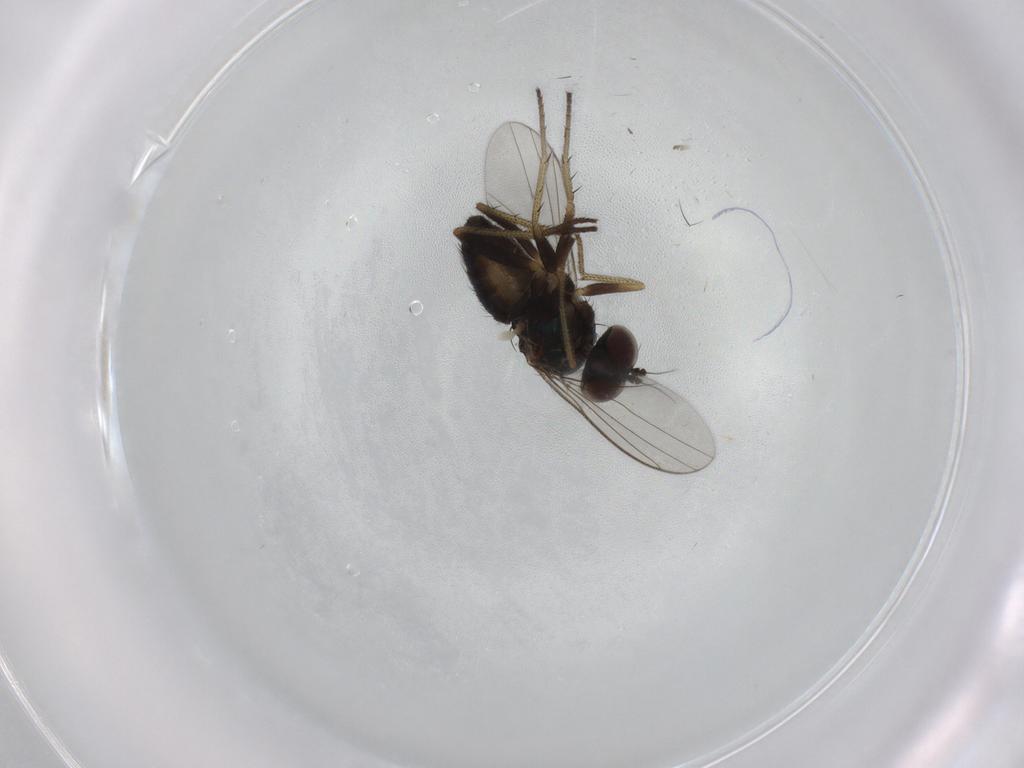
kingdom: Animalia
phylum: Arthropoda
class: Insecta
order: Diptera
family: Dolichopodidae
